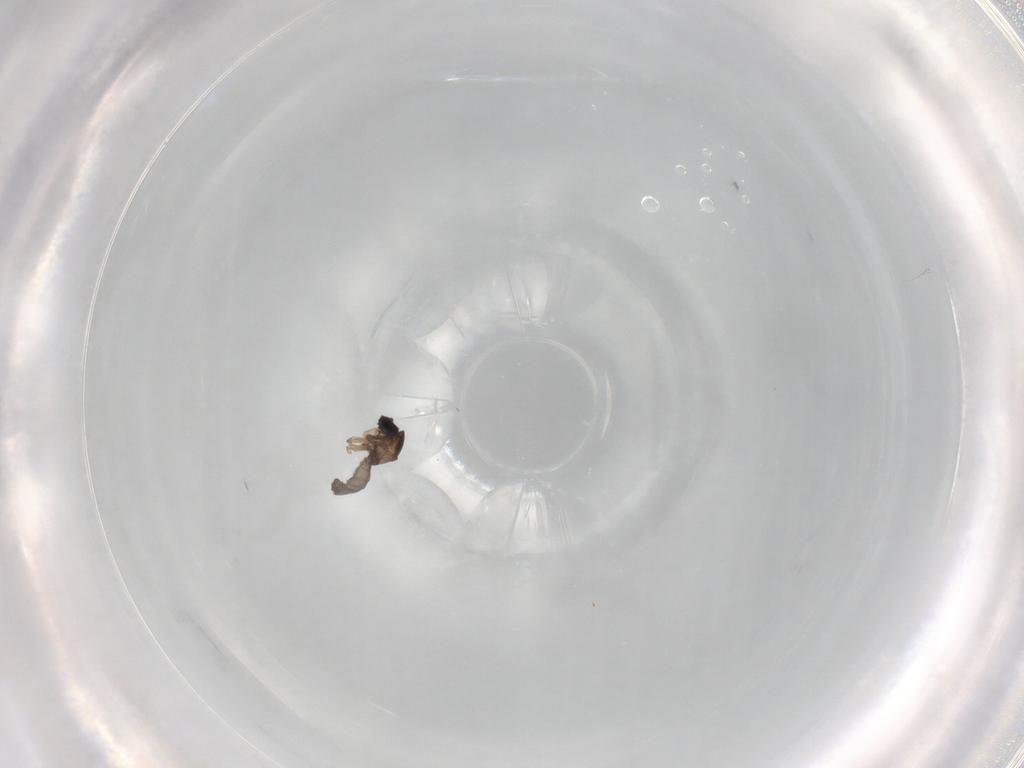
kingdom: Animalia
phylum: Arthropoda
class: Insecta
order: Diptera
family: Sciaridae
